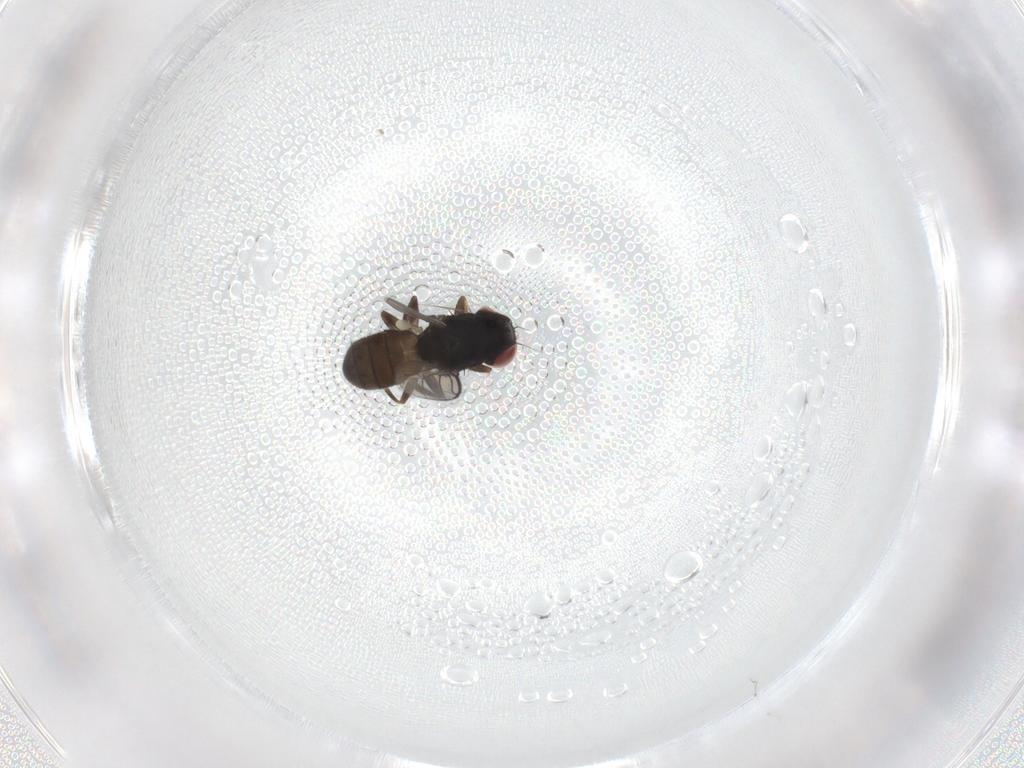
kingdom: Animalia
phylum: Arthropoda
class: Insecta
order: Diptera
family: Chloropidae
